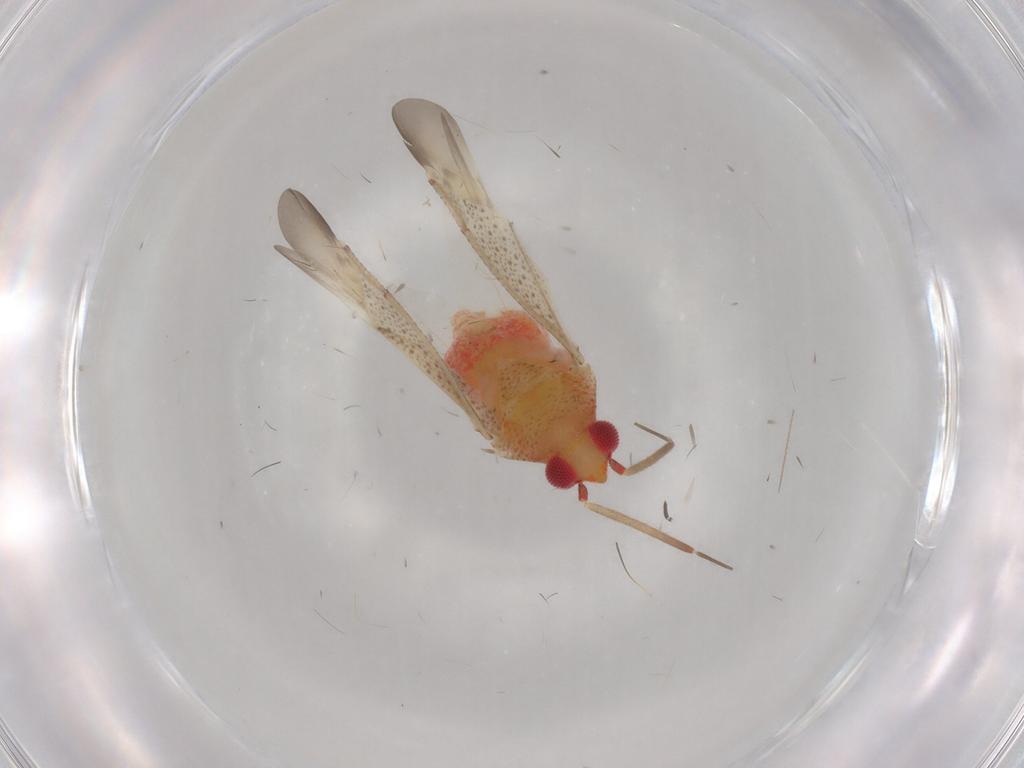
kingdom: Animalia
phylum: Arthropoda
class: Insecta
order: Hemiptera
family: Miridae
